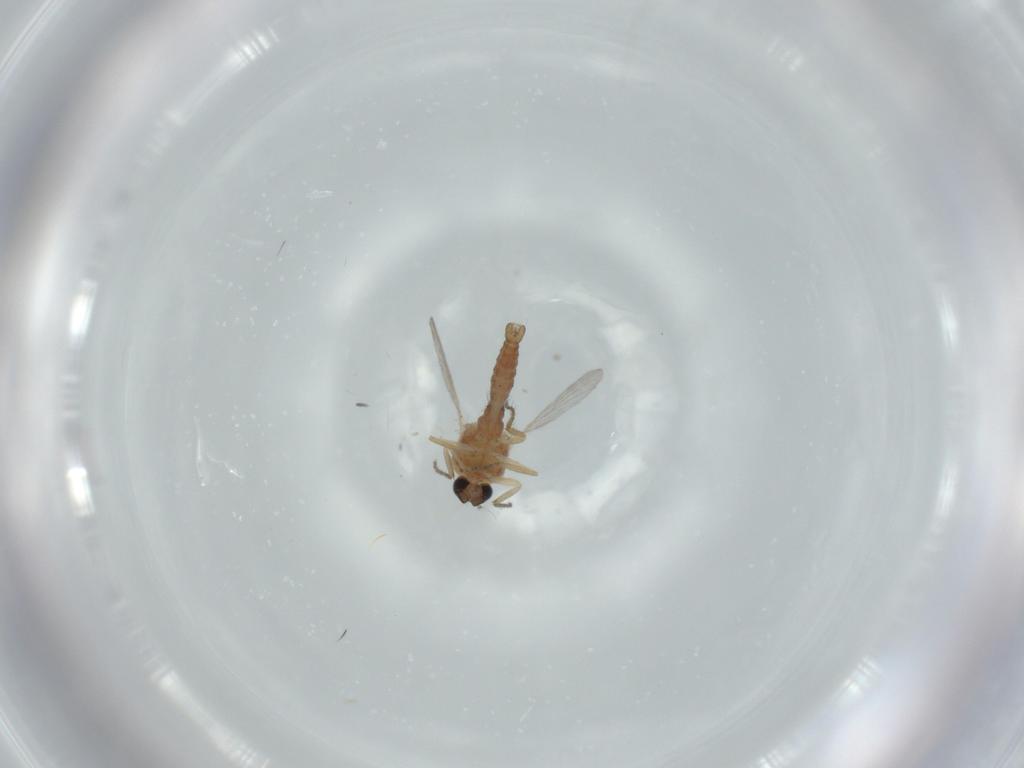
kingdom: Animalia
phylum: Arthropoda
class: Insecta
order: Diptera
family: Ceratopogonidae
